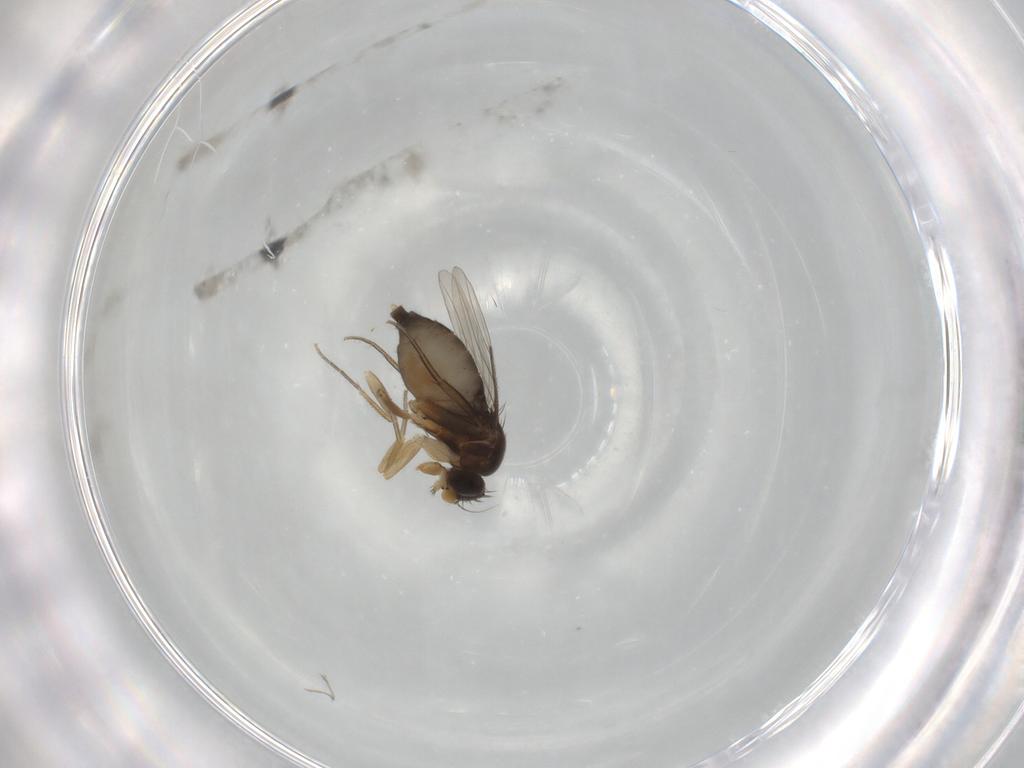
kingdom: Animalia
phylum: Arthropoda
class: Insecta
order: Diptera
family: Phoridae
